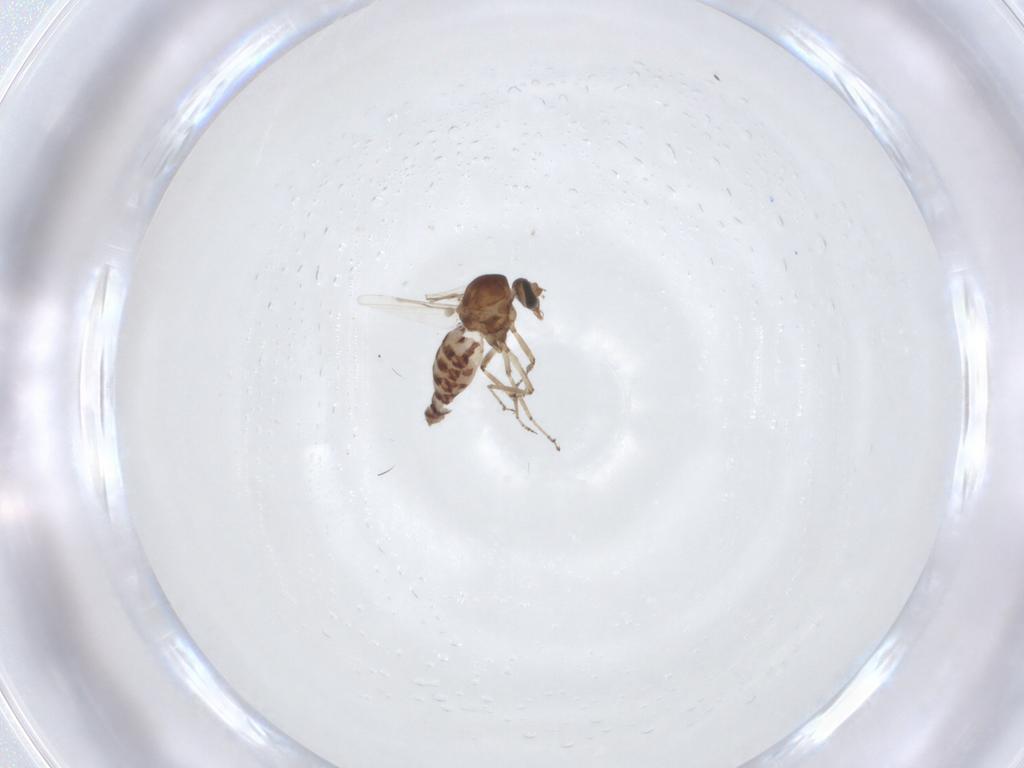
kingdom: Animalia
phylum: Arthropoda
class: Insecta
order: Diptera
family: Ceratopogonidae
